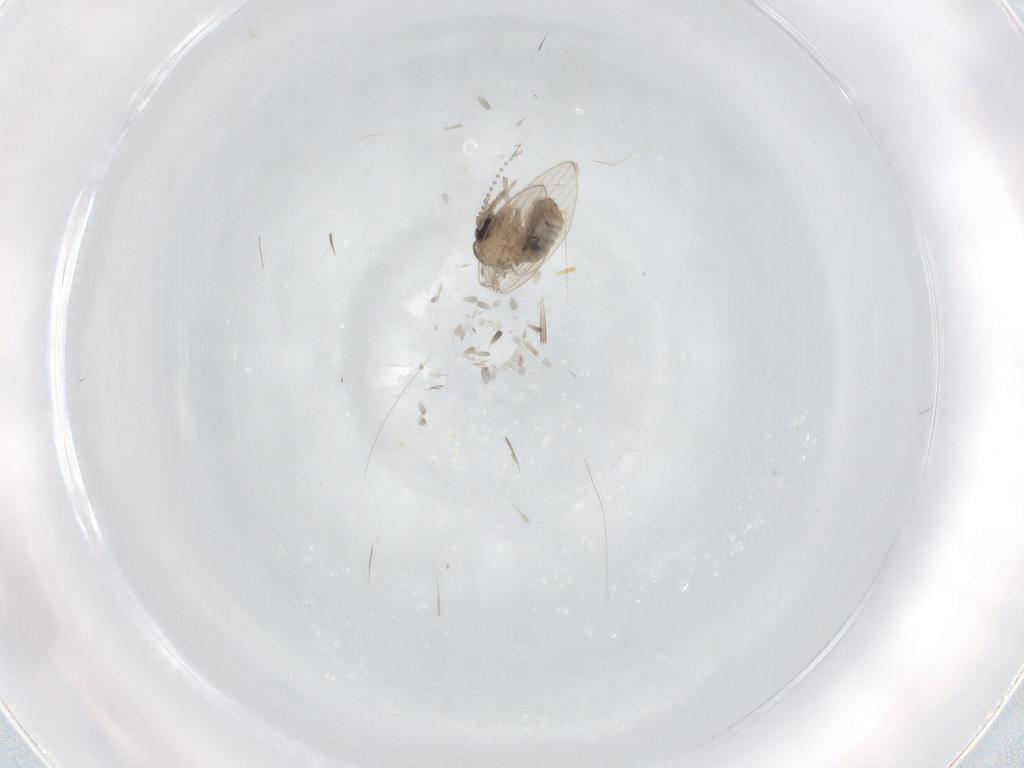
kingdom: Animalia
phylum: Arthropoda
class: Insecta
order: Diptera
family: Psychodidae
